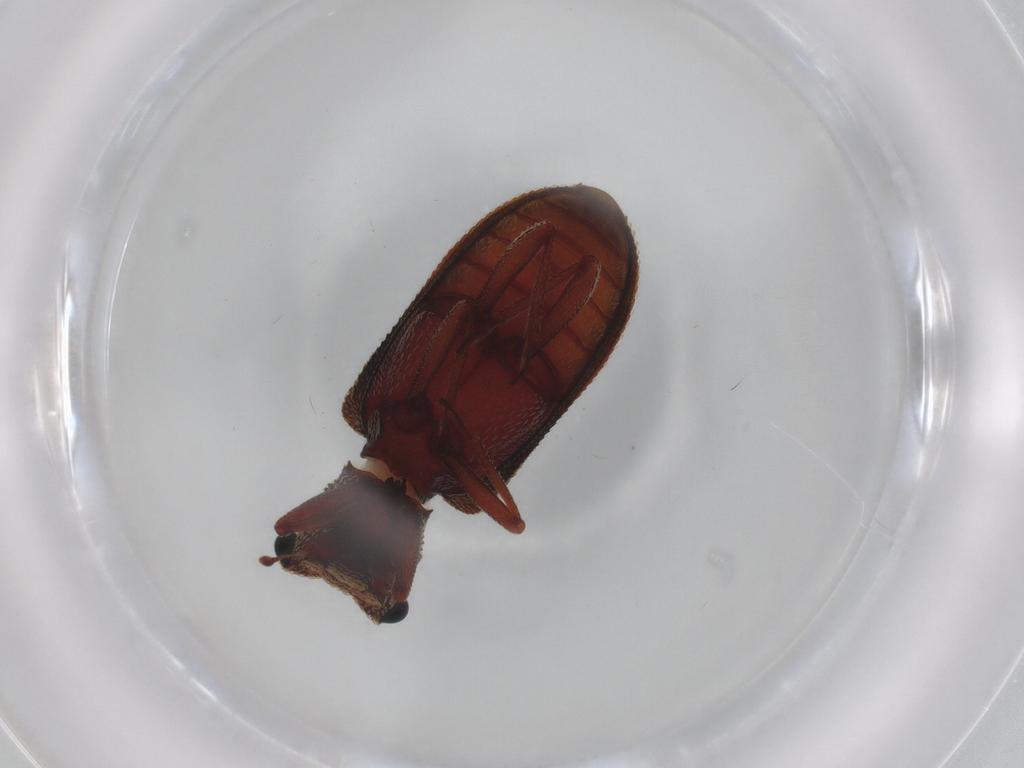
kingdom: Animalia
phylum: Arthropoda
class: Insecta
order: Coleoptera
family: Zopheridae
